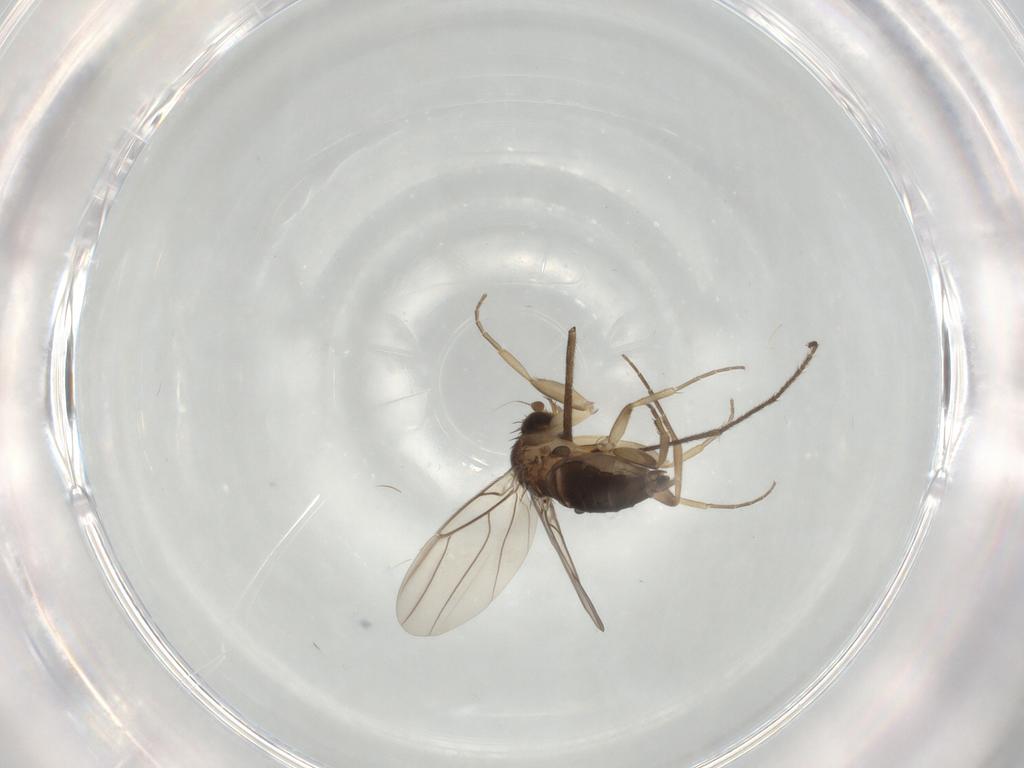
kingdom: Animalia
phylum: Arthropoda
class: Insecta
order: Diptera
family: Phoridae
